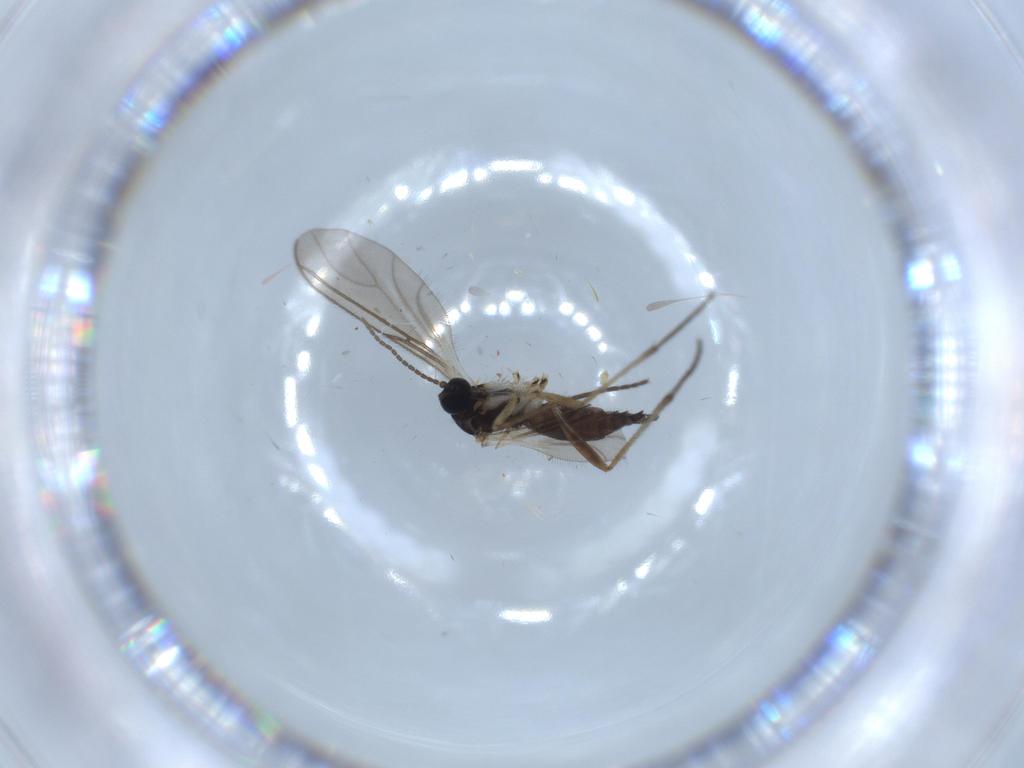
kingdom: Animalia
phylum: Arthropoda
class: Insecta
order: Diptera
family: Sciaridae
